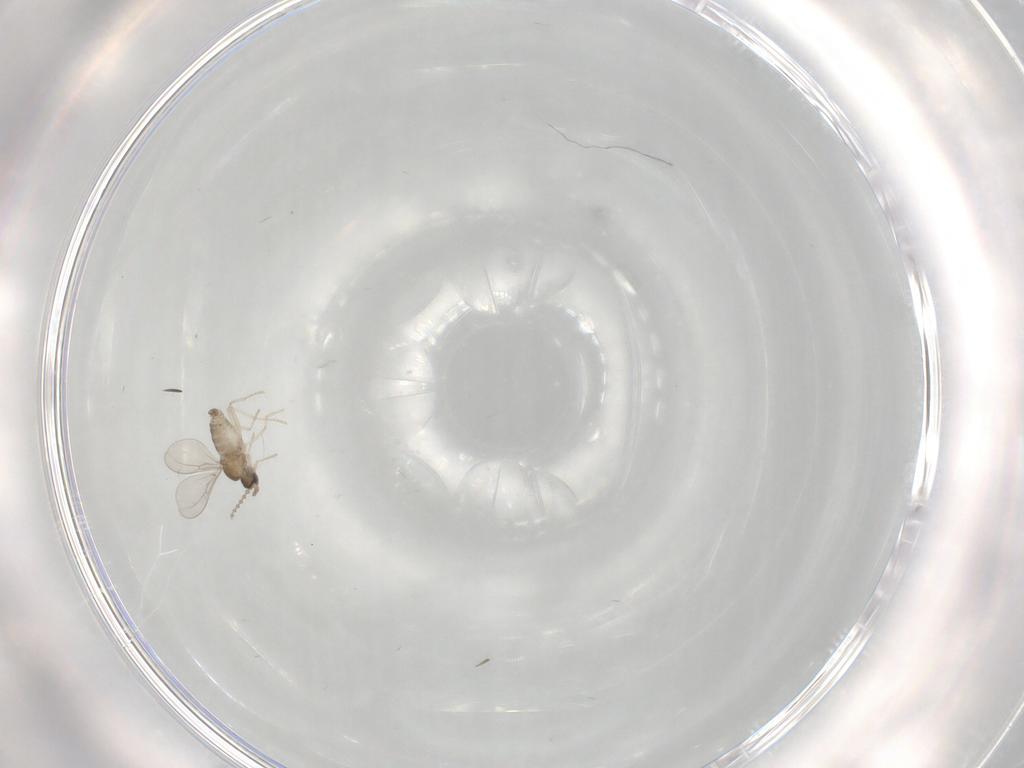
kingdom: Animalia
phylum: Arthropoda
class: Insecta
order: Diptera
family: Cecidomyiidae
